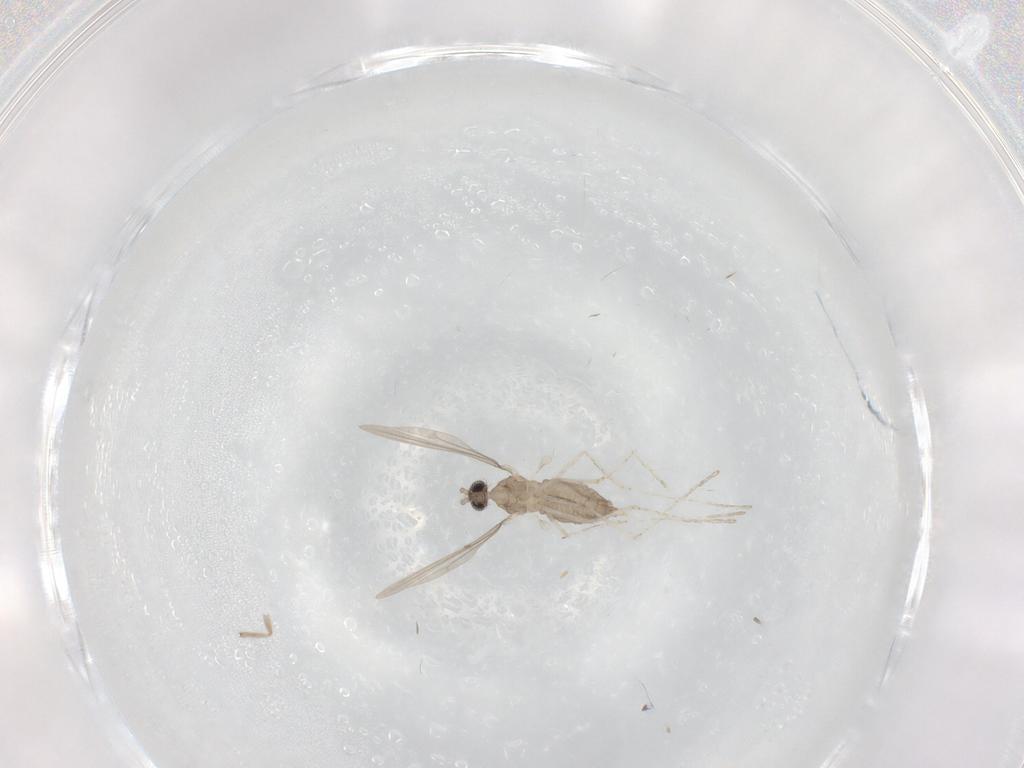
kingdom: Animalia
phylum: Arthropoda
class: Insecta
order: Diptera
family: Cecidomyiidae
